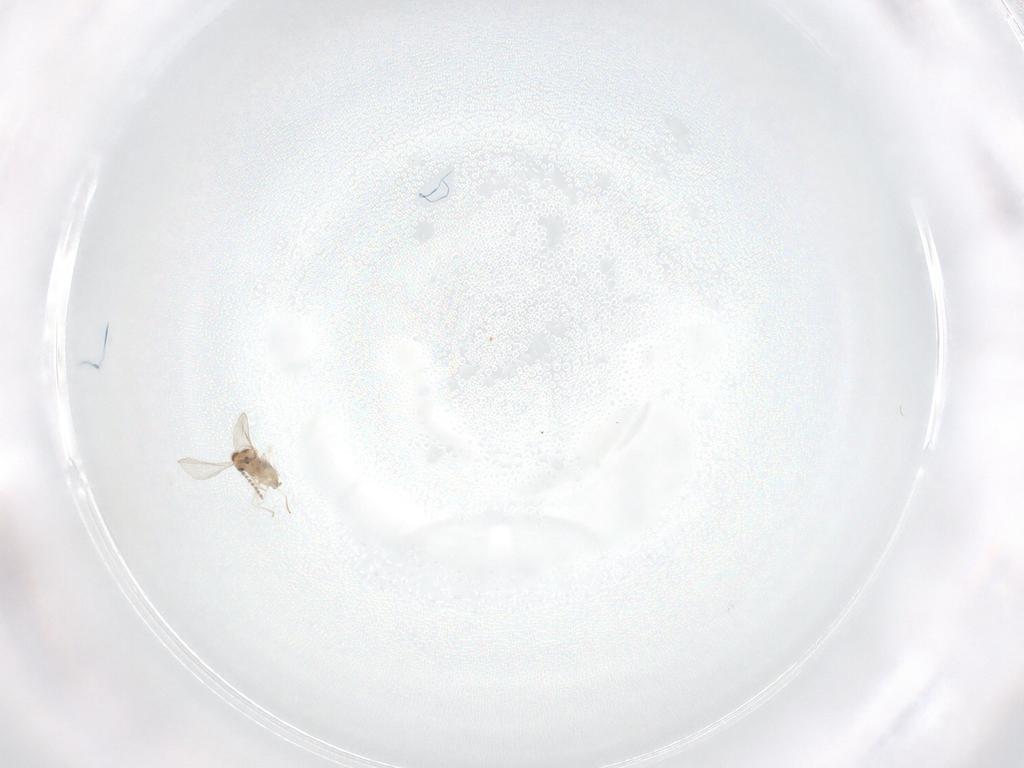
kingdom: Animalia
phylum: Arthropoda
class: Insecta
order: Diptera
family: Cecidomyiidae
